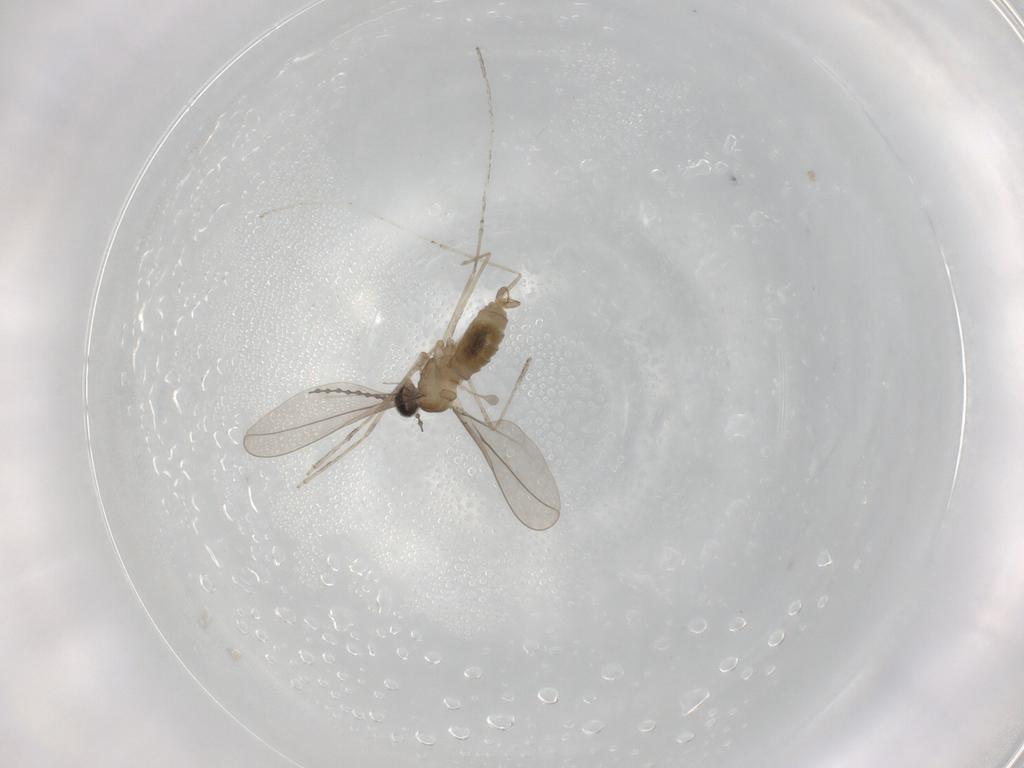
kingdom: Animalia
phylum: Arthropoda
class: Insecta
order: Diptera
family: Cecidomyiidae
